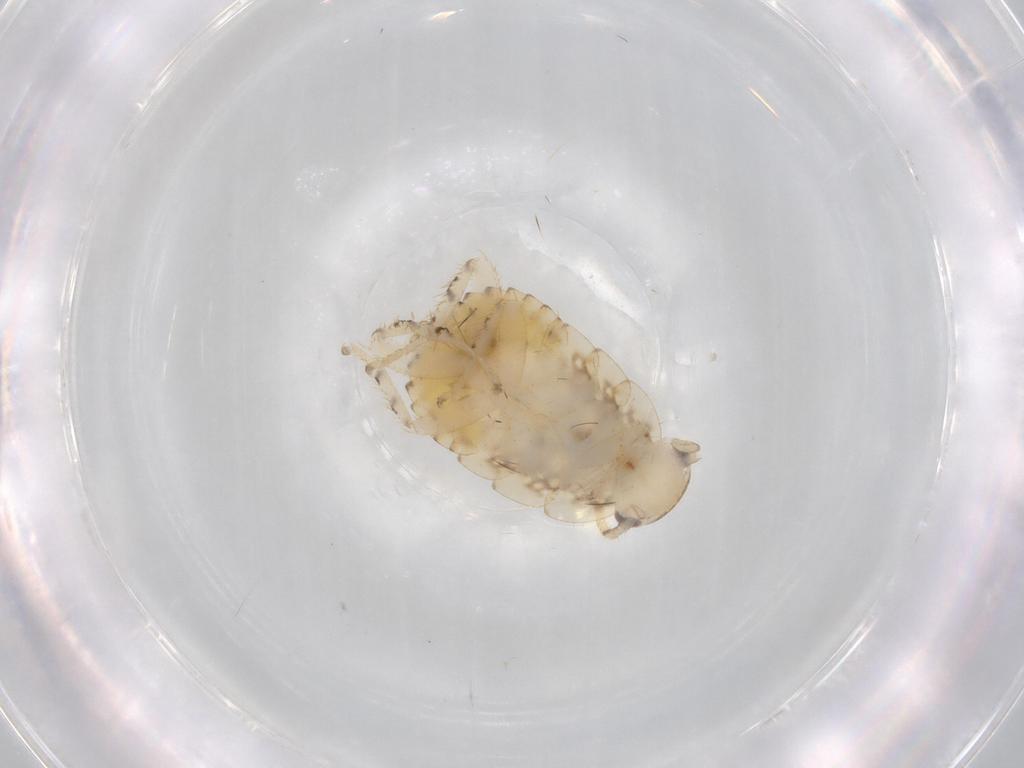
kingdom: Animalia
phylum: Arthropoda
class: Insecta
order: Blattodea
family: Ectobiidae
